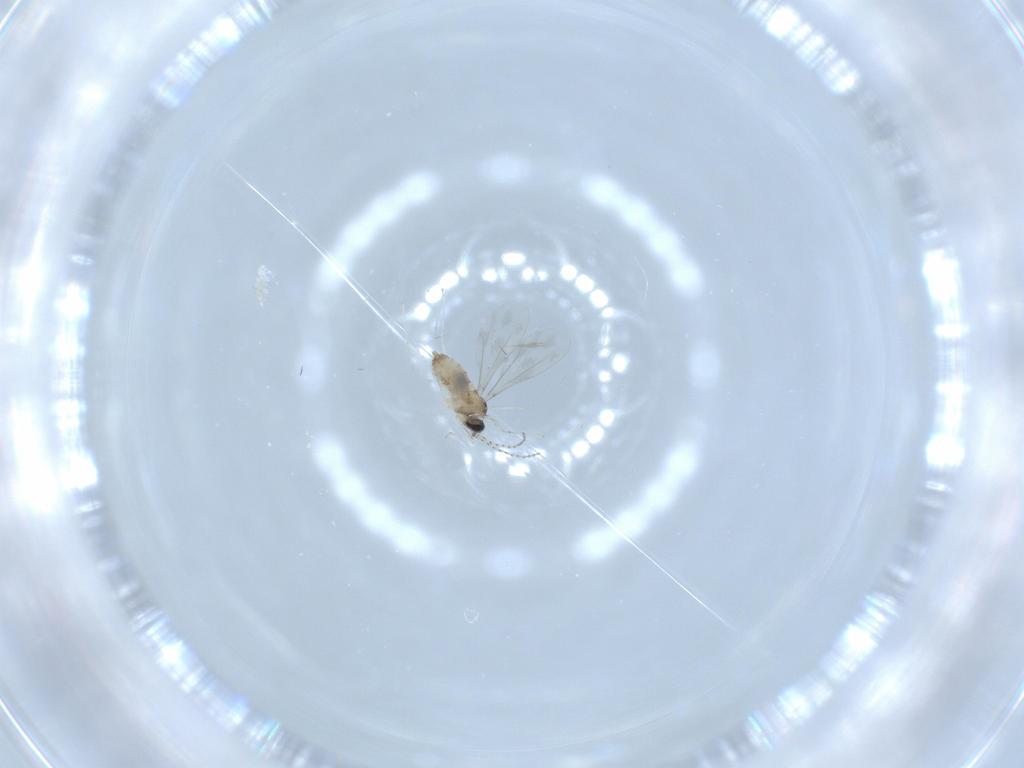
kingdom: Animalia
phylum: Arthropoda
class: Insecta
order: Diptera
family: Cecidomyiidae
